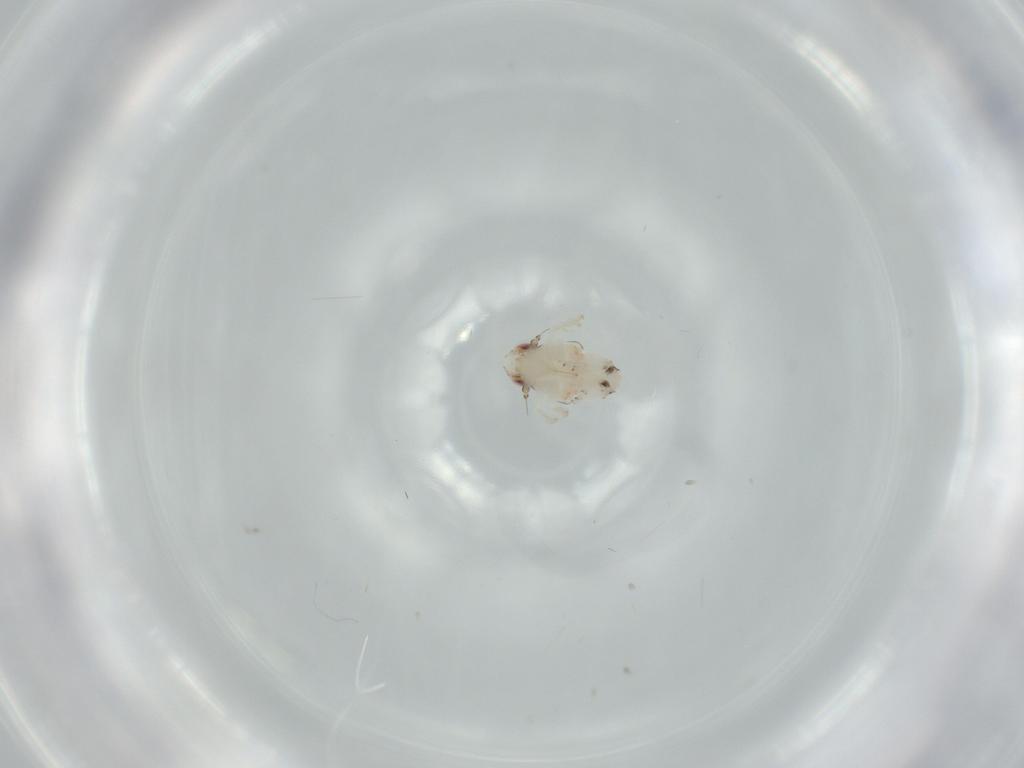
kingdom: Animalia
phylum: Arthropoda
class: Insecta
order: Hemiptera
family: Nogodinidae
